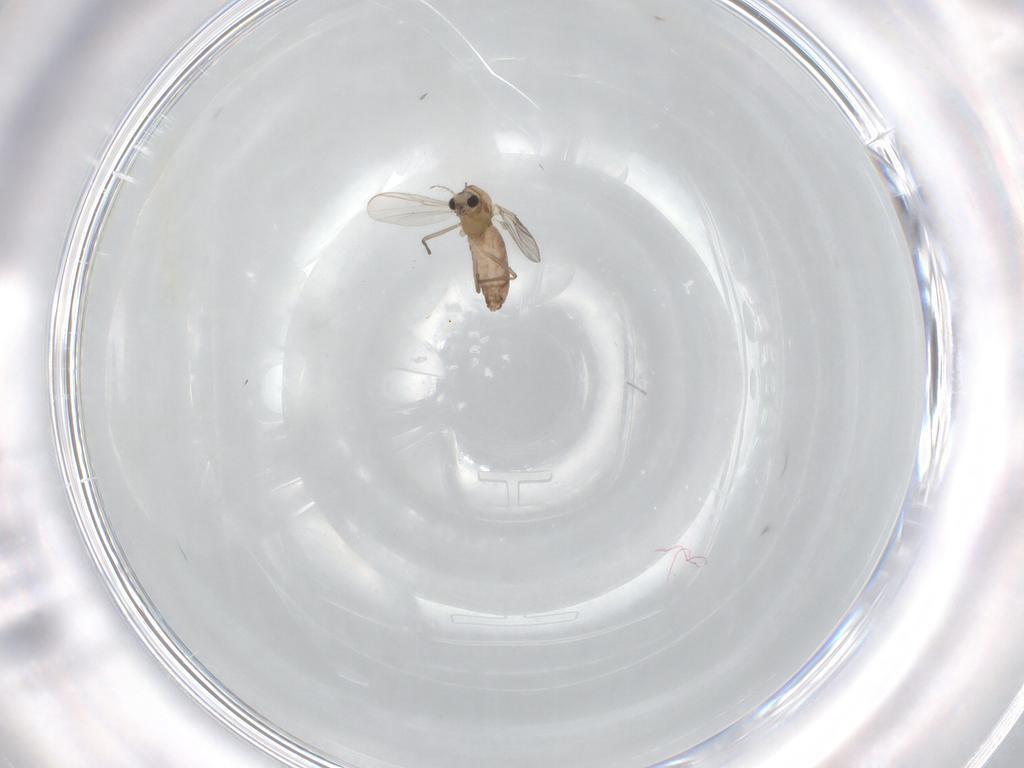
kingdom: Animalia
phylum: Arthropoda
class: Insecta
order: Diptera
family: Chironomidae
